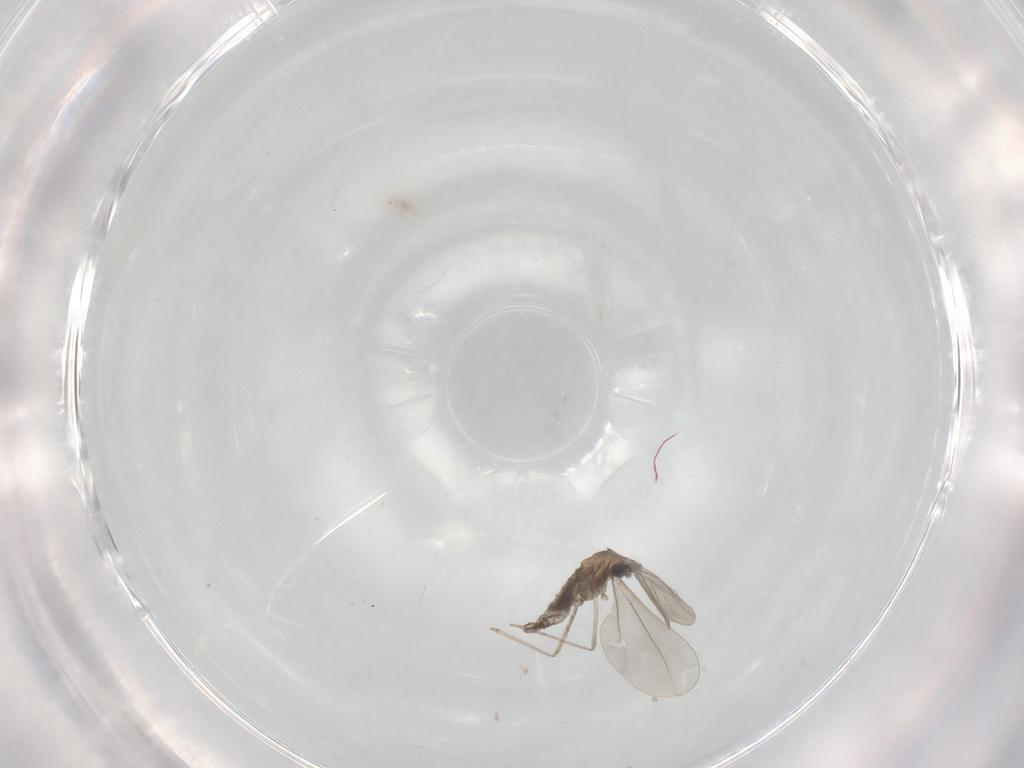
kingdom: Animalia
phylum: Arthropoda
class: Insecta
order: Diptera
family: Cecidomyiidae
